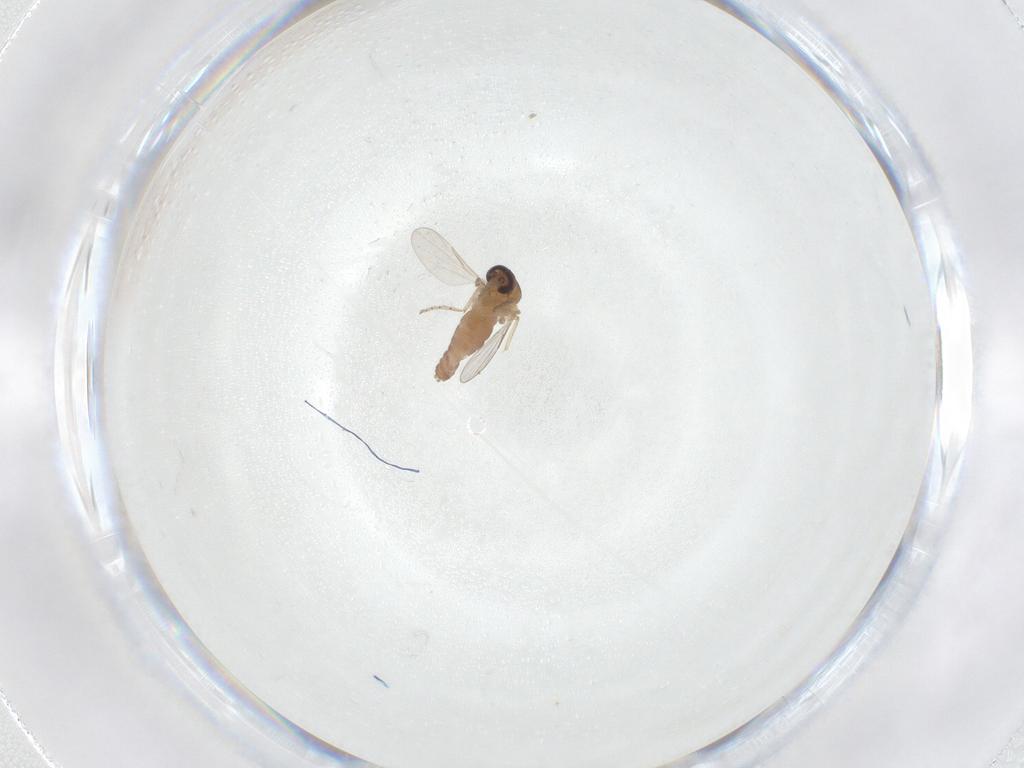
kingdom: Animalia
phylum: Arthropoda
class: Insecta
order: Diptera
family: Ceratopogonidae
